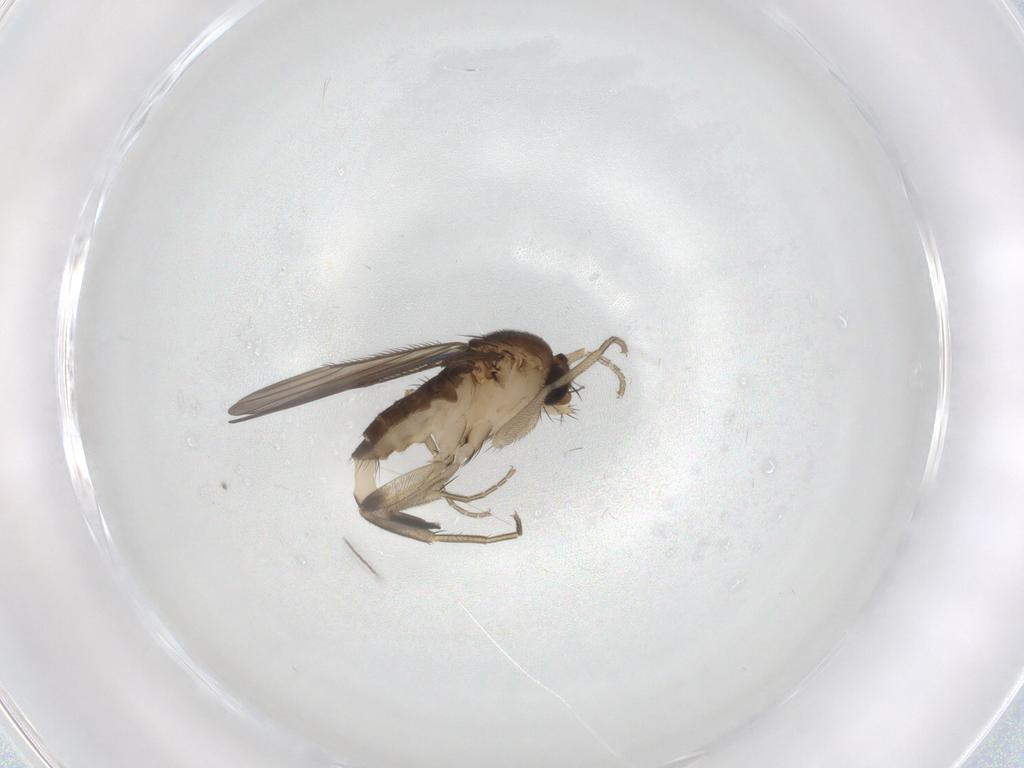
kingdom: Animalia
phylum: Arthropoda
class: Insecta
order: Diptera
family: Phoridae
